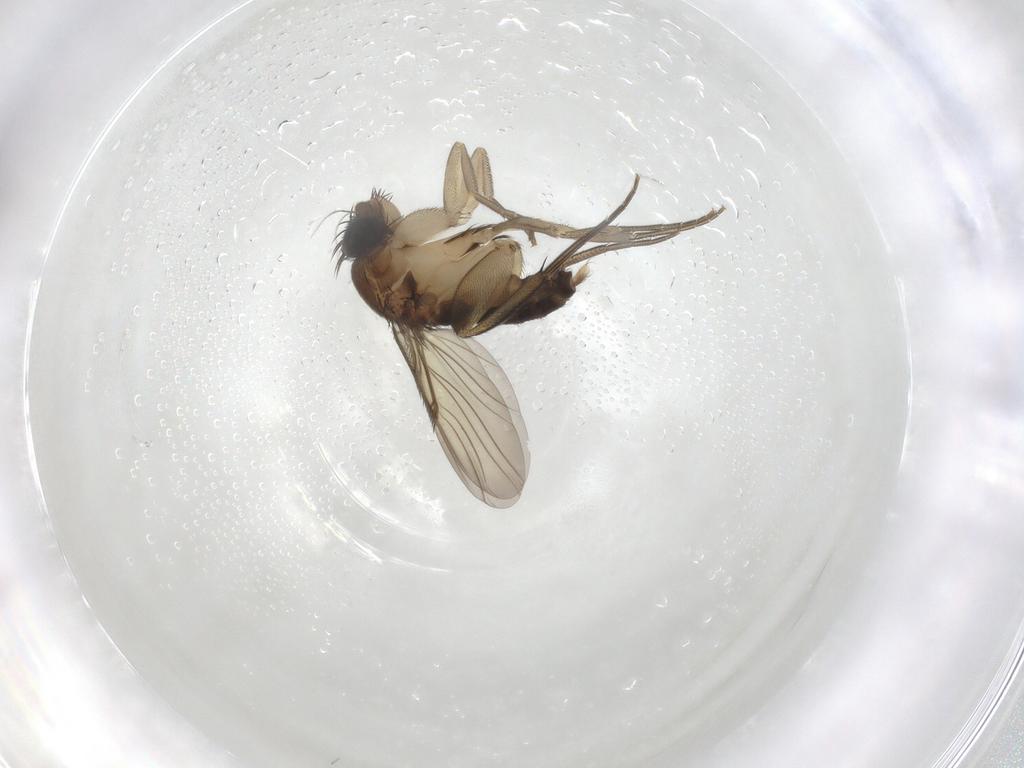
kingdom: Animalia
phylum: Arthropoda
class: Insecta
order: Diptera
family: Phoridae
